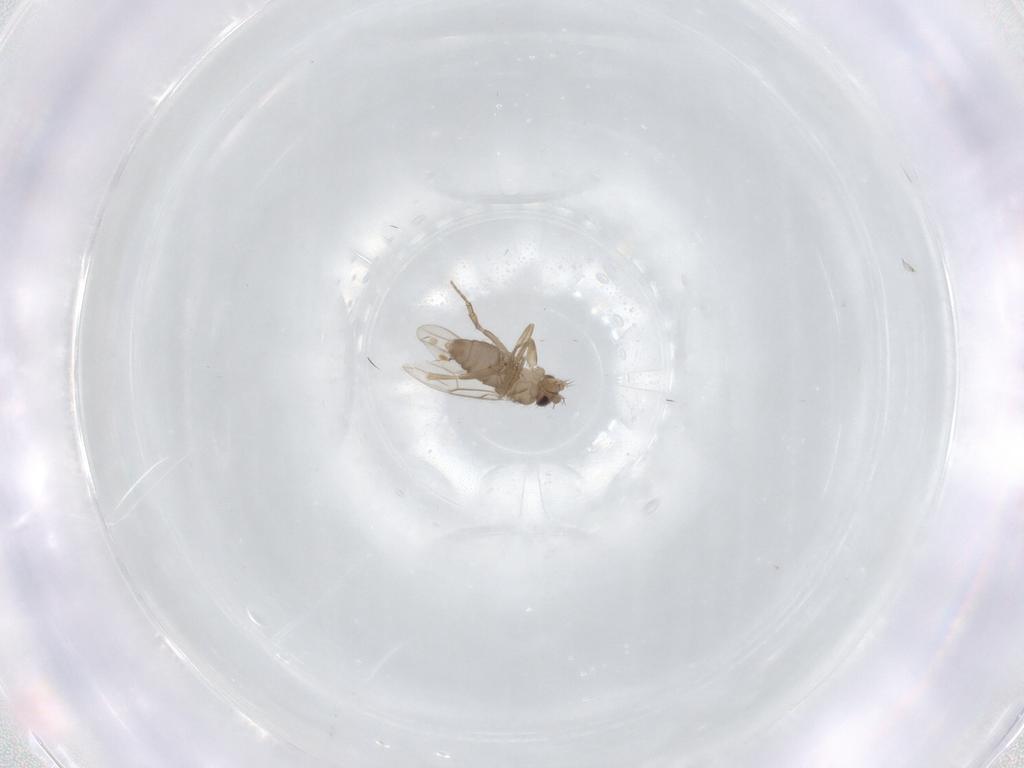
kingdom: Animalia
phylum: Arthropoda
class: Insecta
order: Diptera
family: Phoridae
